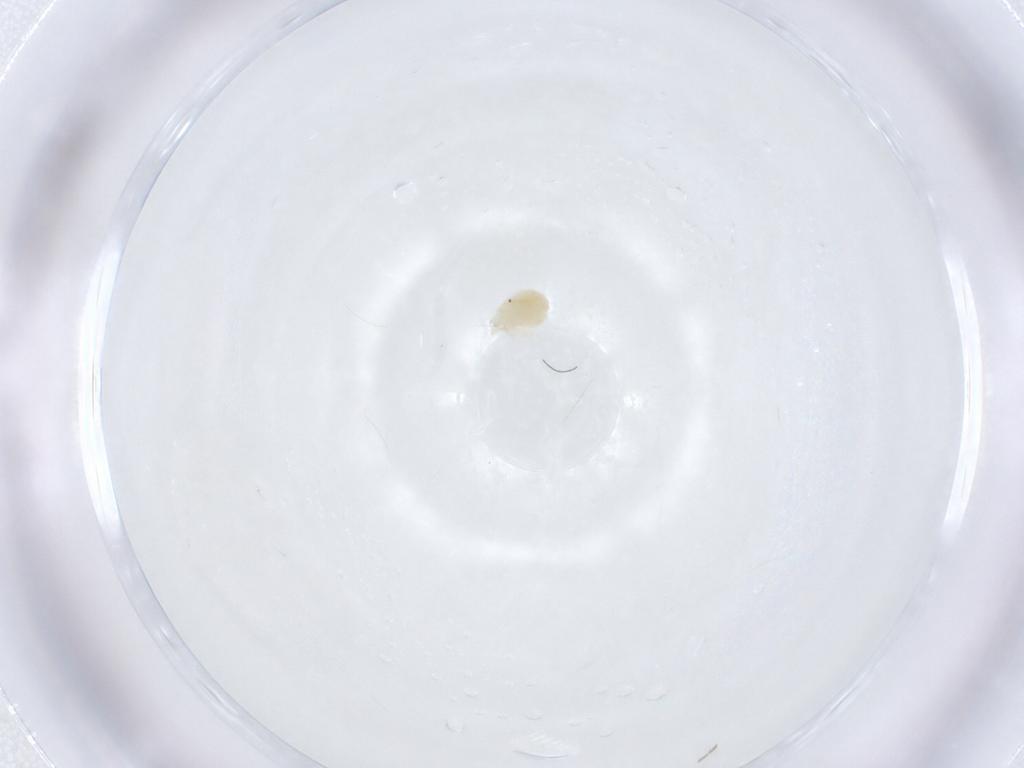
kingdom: Animalia
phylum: Arthropoda
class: Arachnida
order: Trombidiformes
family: Anystidae
